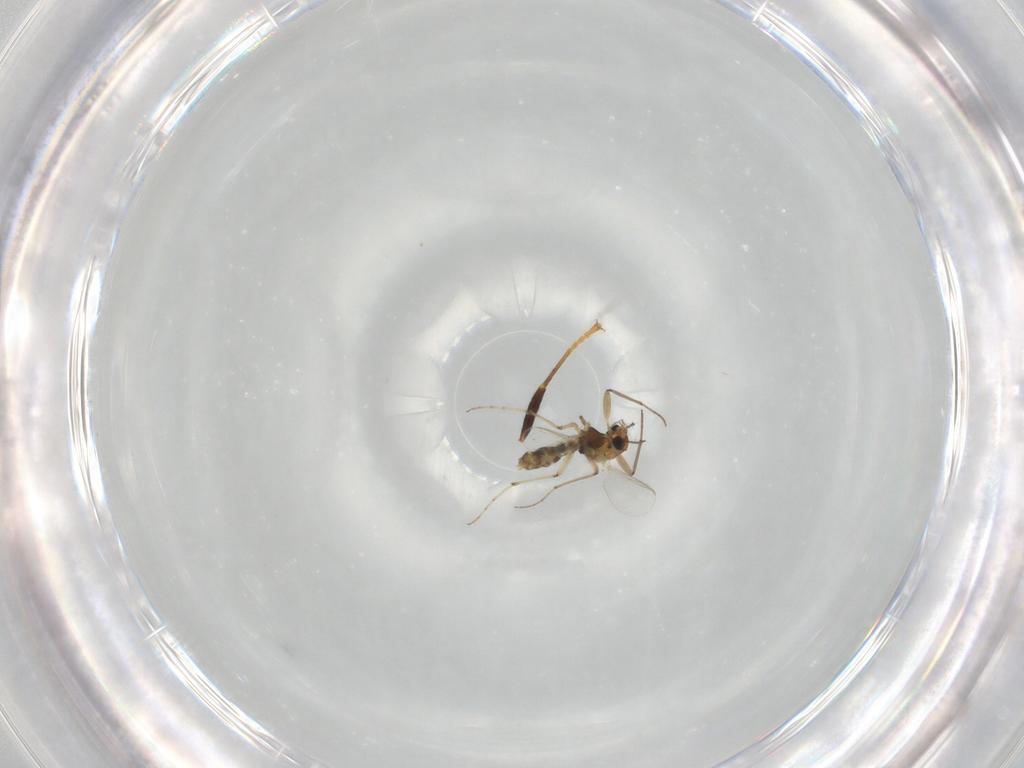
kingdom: Animalia
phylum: Arthropoda
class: Insecta
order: Diptera
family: Chironomidae
